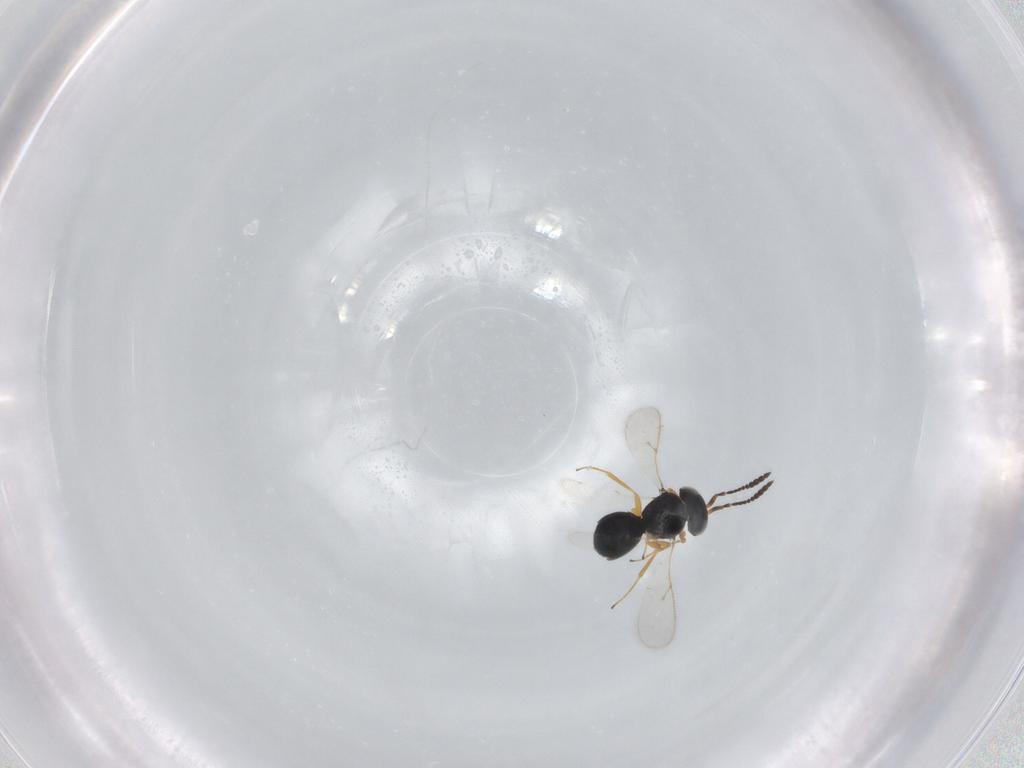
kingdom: Animalia
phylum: Arthropoda
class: Insecta
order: Hymenoptera
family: Scelionidae
